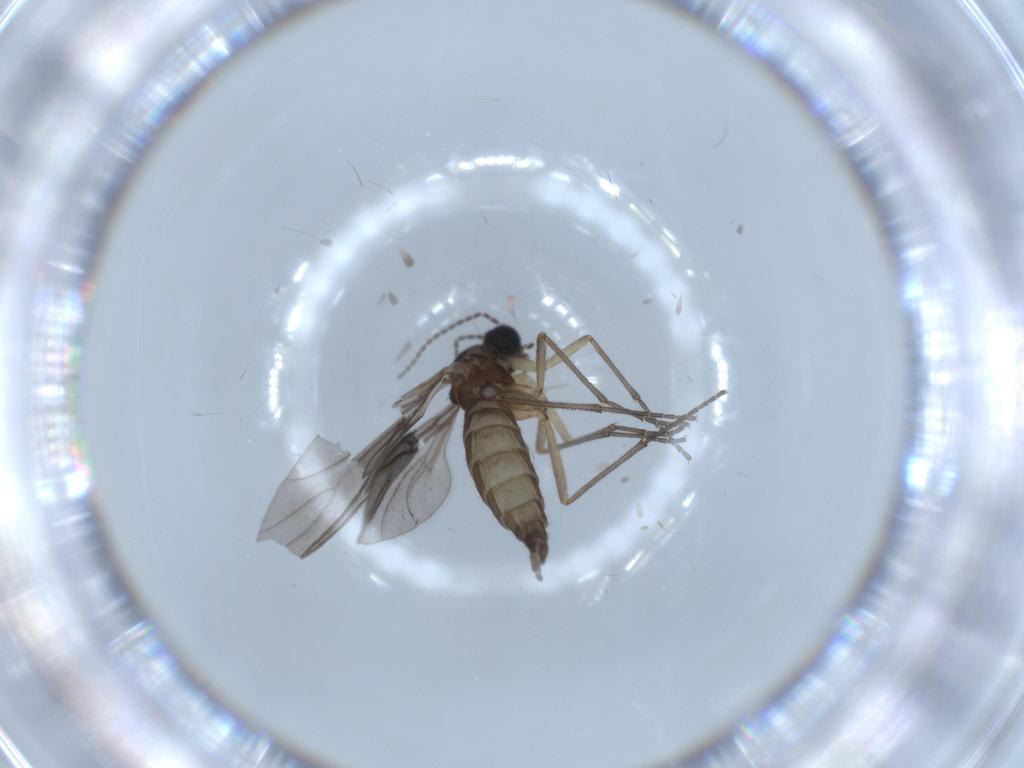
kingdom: Animalia
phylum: Arthropoda
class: Insecta
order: Diptera
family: Sciaridae
